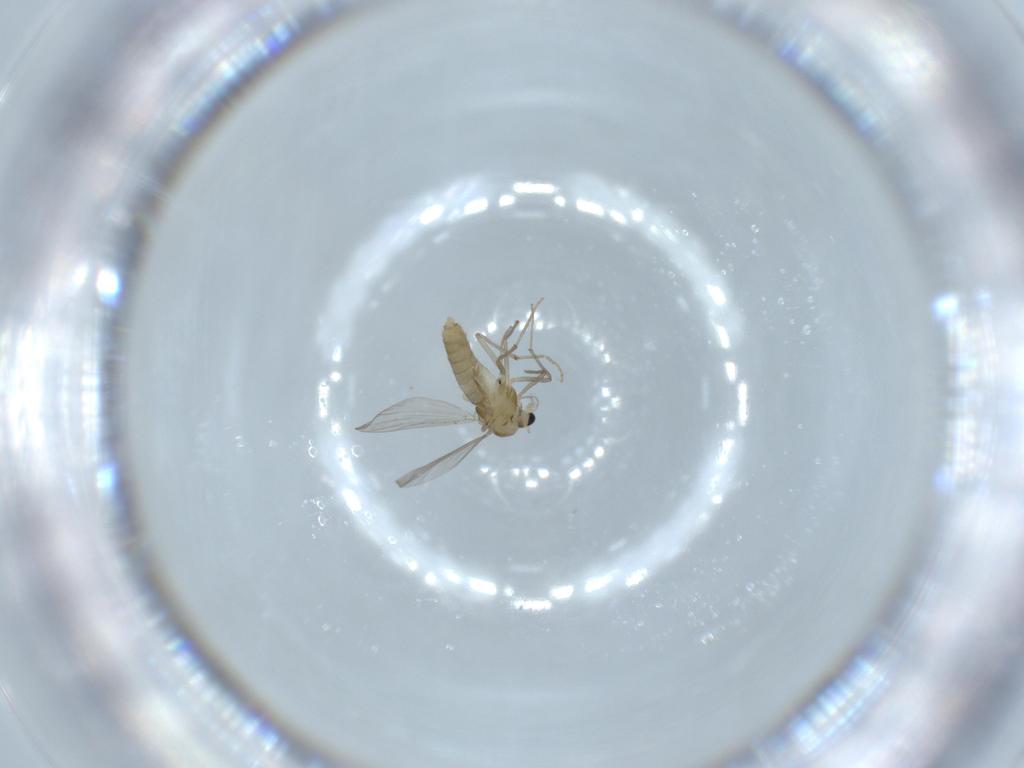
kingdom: Animalia
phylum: Arthropoda
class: Insecta
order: Diptera
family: Chironomidae
